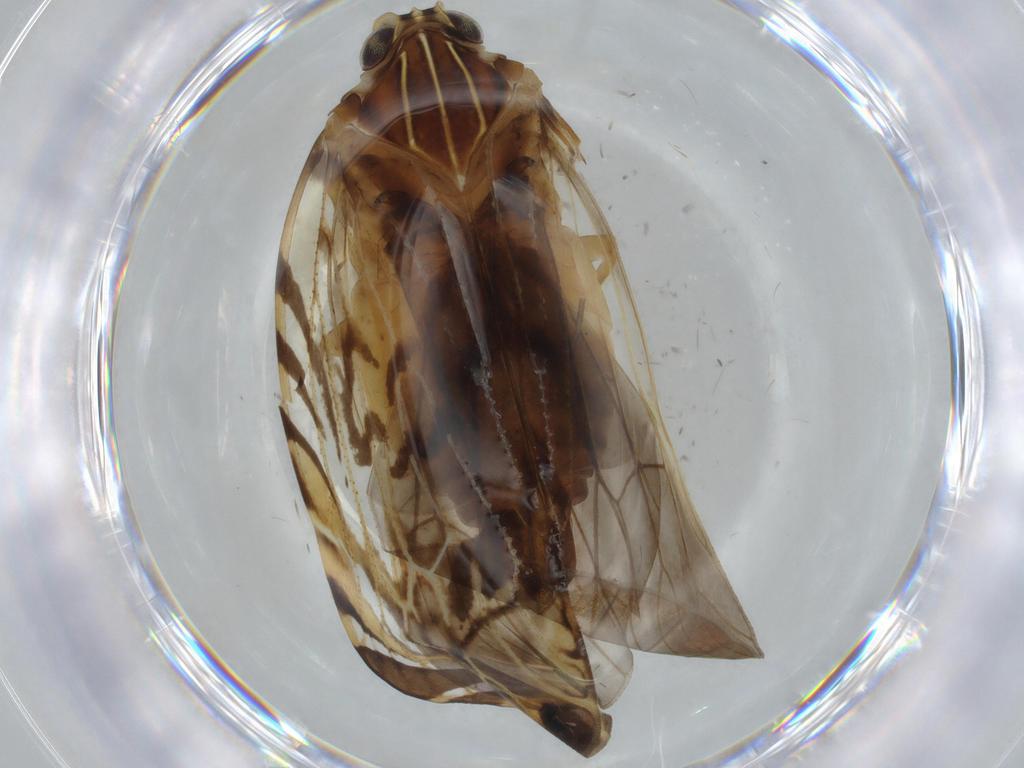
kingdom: Animalia
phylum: Arthropoda
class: Insecta
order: Hemiptera
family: Cixiidae
